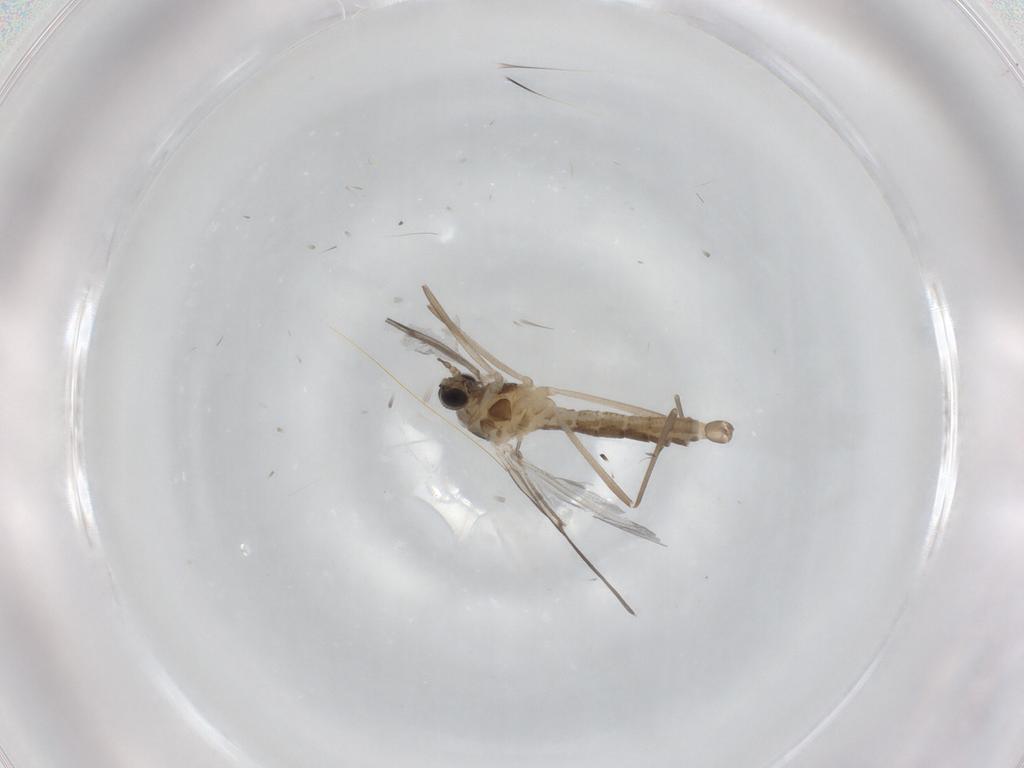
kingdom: Animalia
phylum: Arthropoda
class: Insecta
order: Diptera
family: Cecidomyiidae
